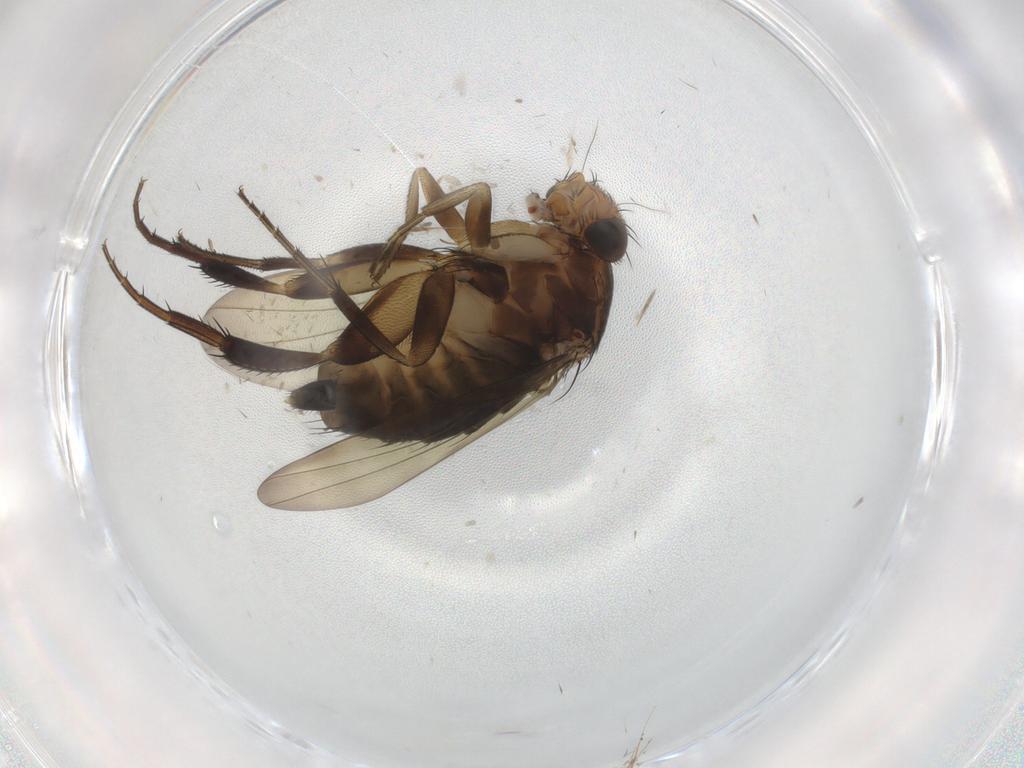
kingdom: Animalia
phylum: Arthropoda
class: Insecta
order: Diptera
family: Phoridae
